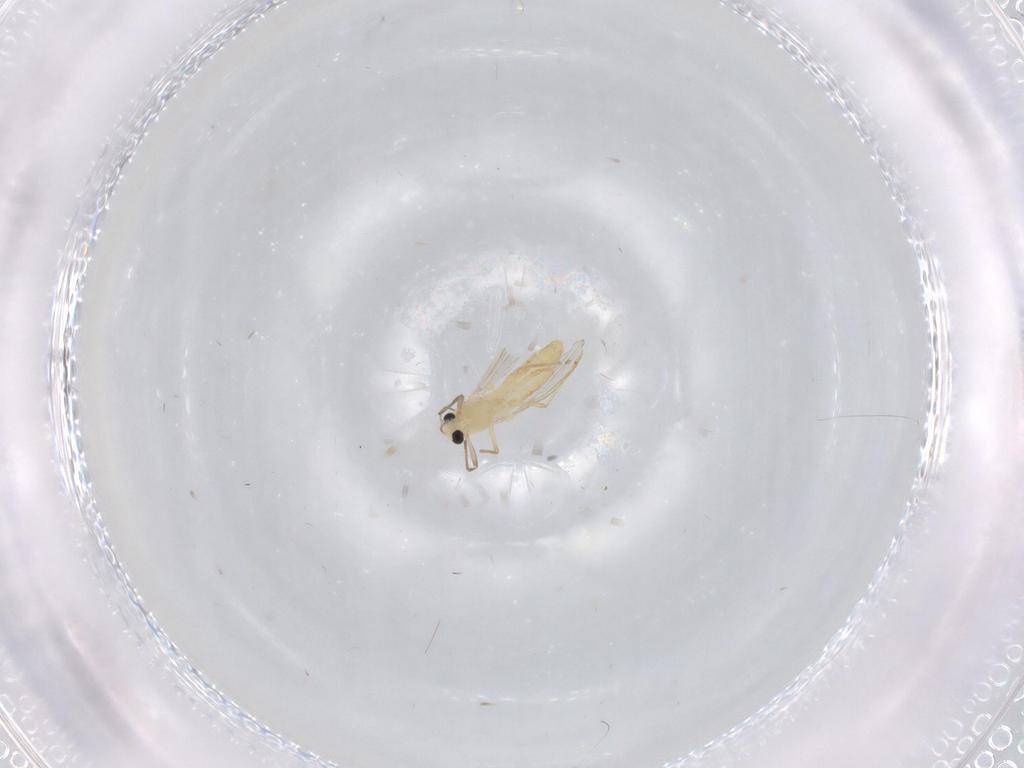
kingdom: Animalia
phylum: Arthropoda
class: Insecta
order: Diptera
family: Chironomidae
